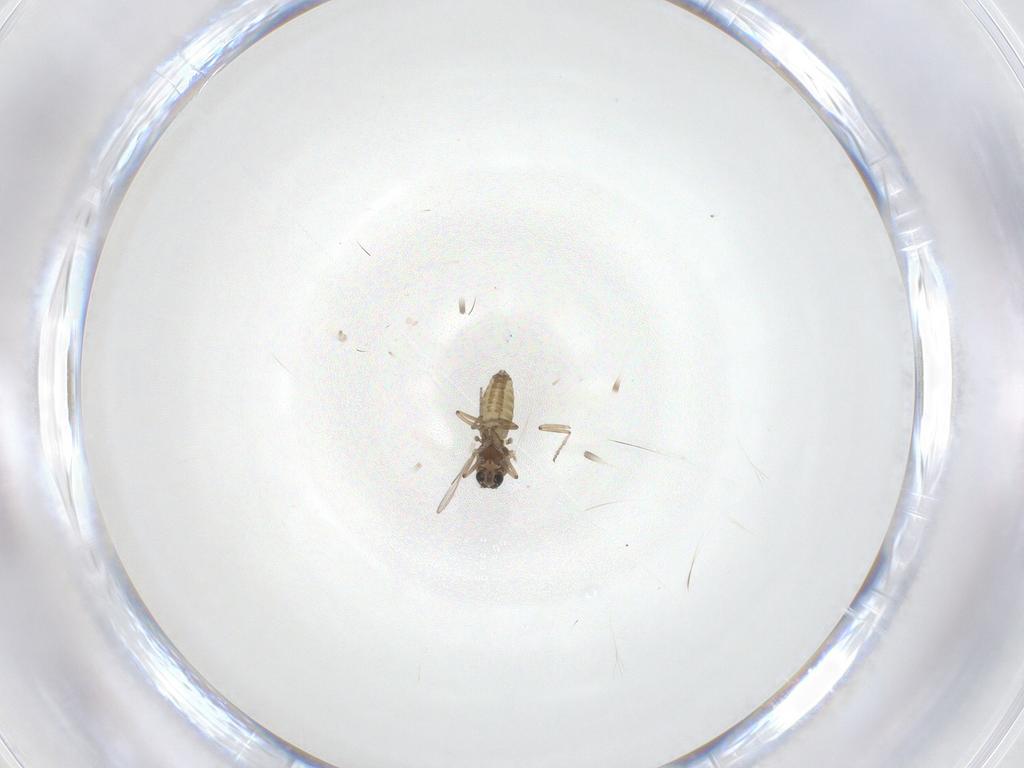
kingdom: Animalia
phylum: Arthropoda
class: Insecta
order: Diptera
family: Ceratopogonidae
